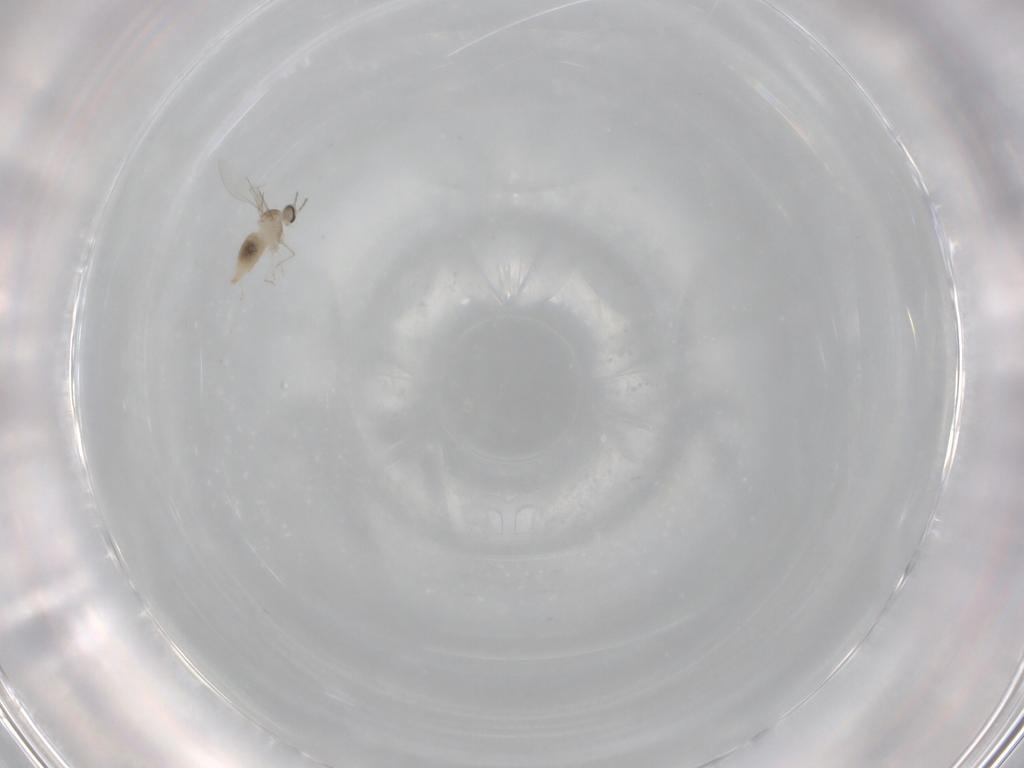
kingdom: Animalia
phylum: Arthropoda
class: Insecta
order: Diptera
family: Cecidomyiidae
